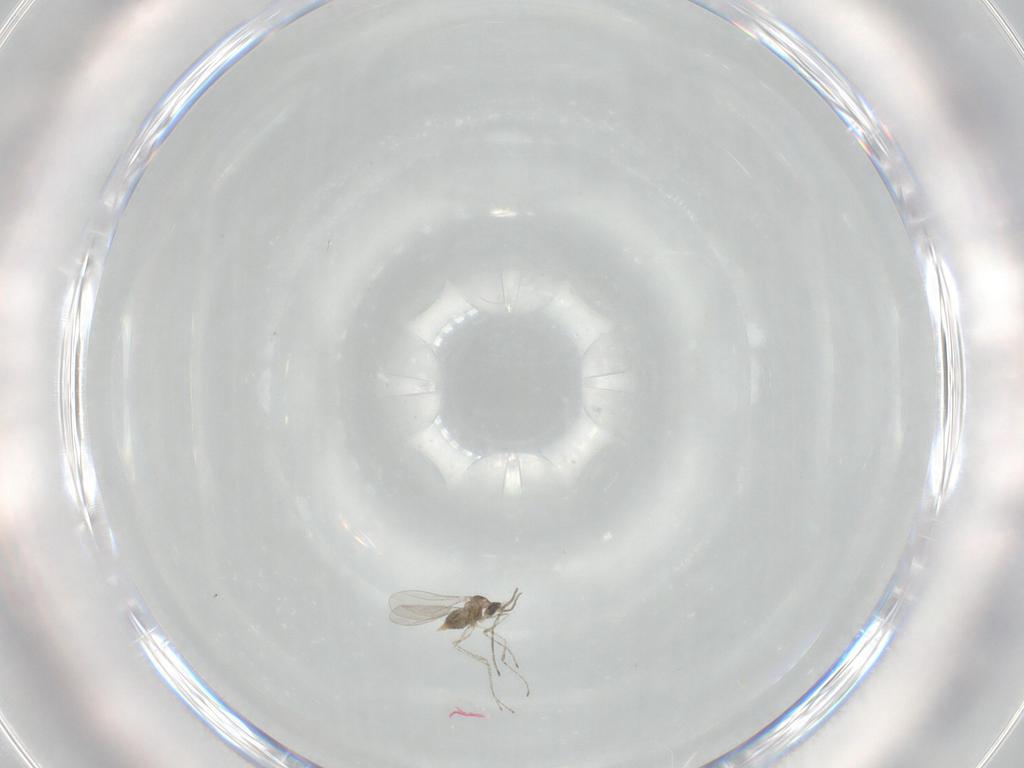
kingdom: Animalia
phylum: Arthropoda
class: Insecta
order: Diptera
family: Cecidomyiidae
